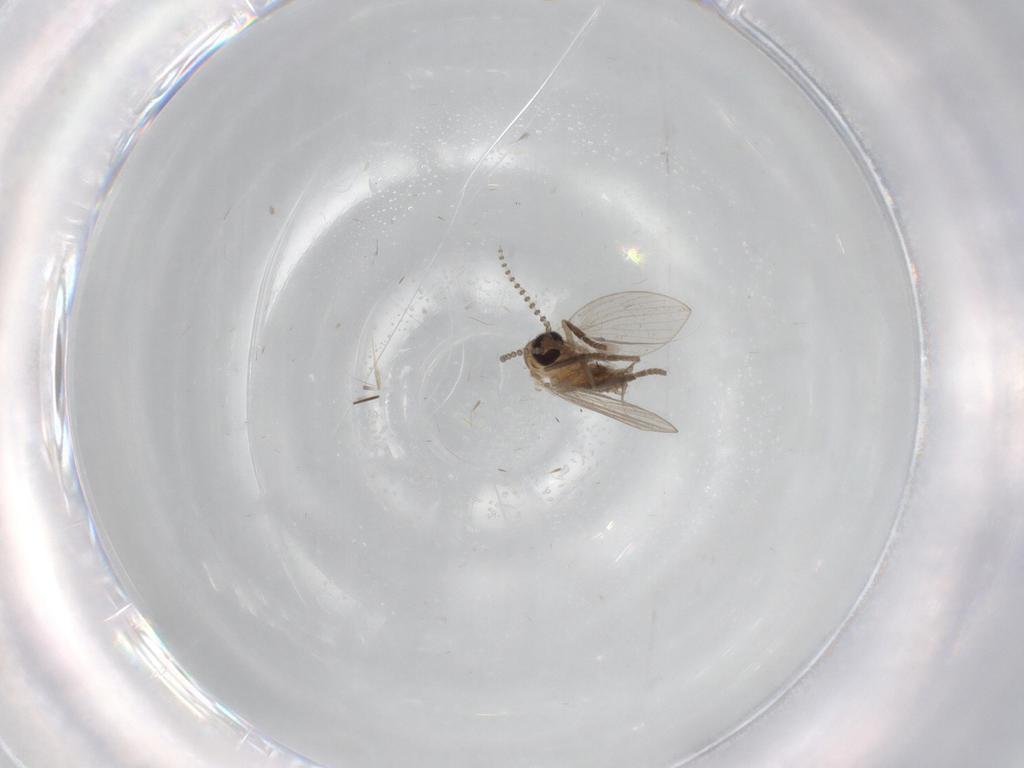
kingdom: Animalia
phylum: Arthropoda
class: Insecta
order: Diptera
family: Cecidomyiidae
